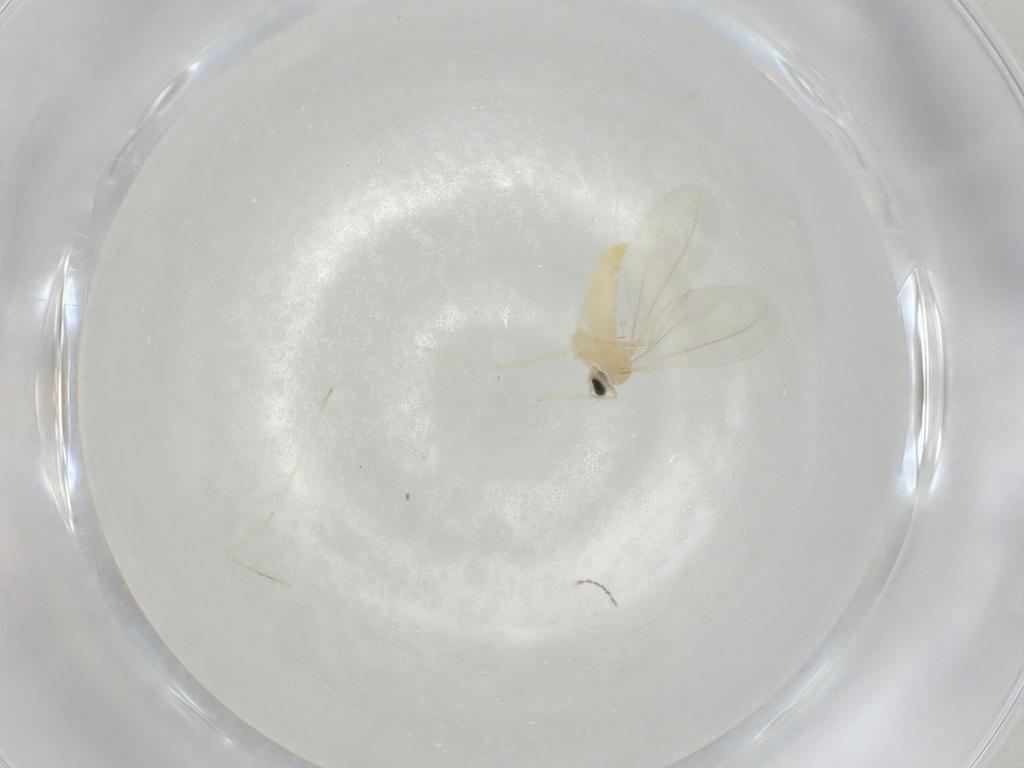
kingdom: Animalia
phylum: Arthropoda
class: Insecta
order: Diptera
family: Cecidomyiidae
